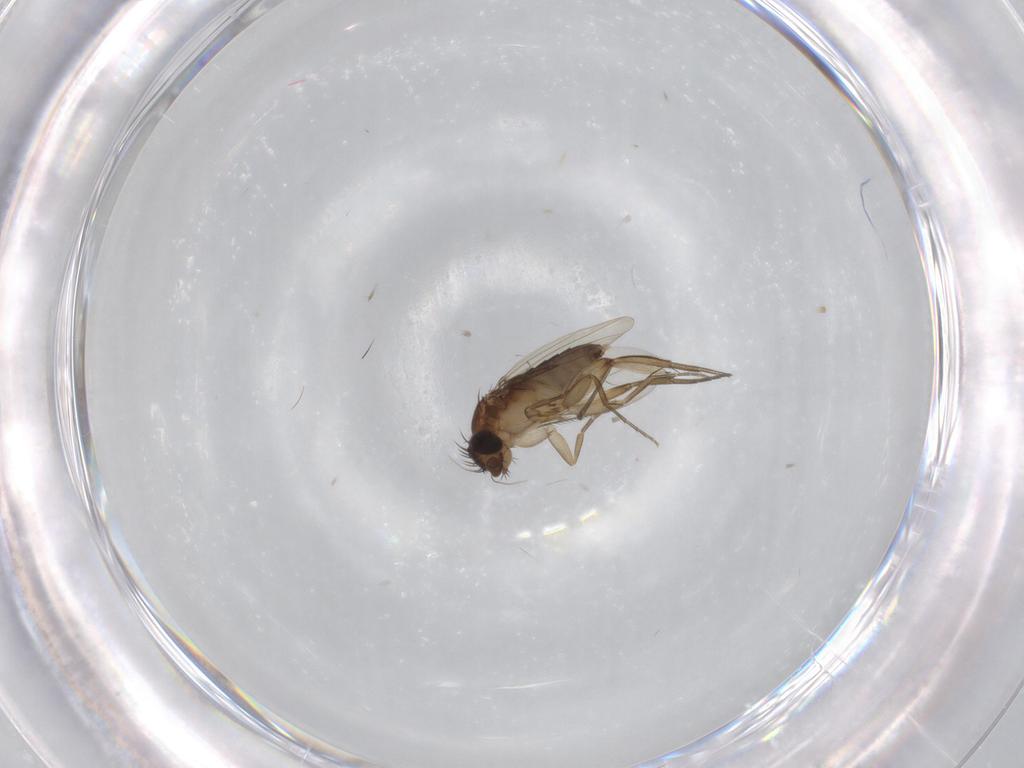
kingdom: Animalia
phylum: Arthropoda
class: Insecta
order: Diptera
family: Phoridae
